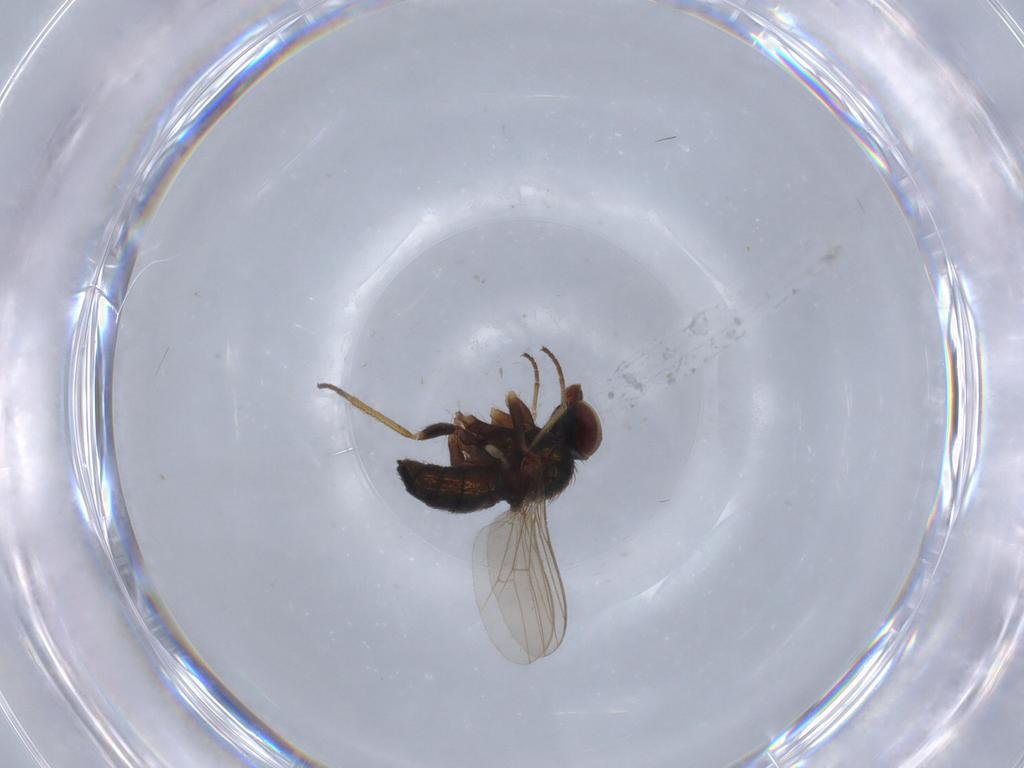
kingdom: Animalia
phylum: Arthropoda
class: Insecta
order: Diptera
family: Dolichopodidae
